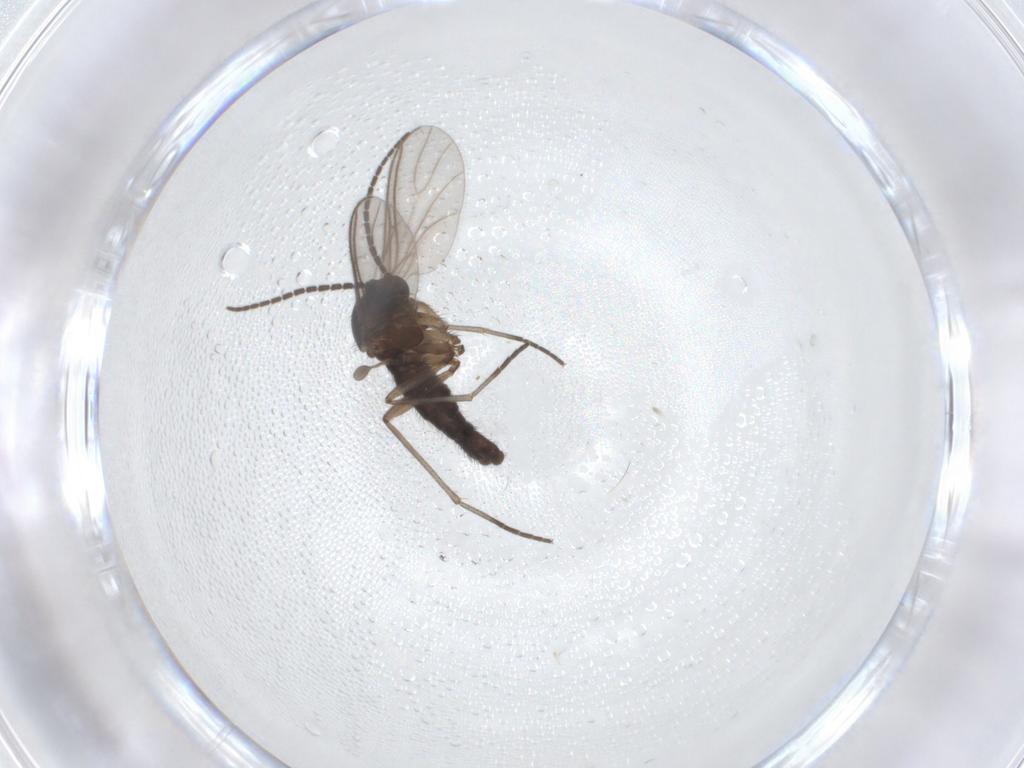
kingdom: Animalia
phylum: Arthropoda
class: Insecta
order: Diptera
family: Sciaridae
